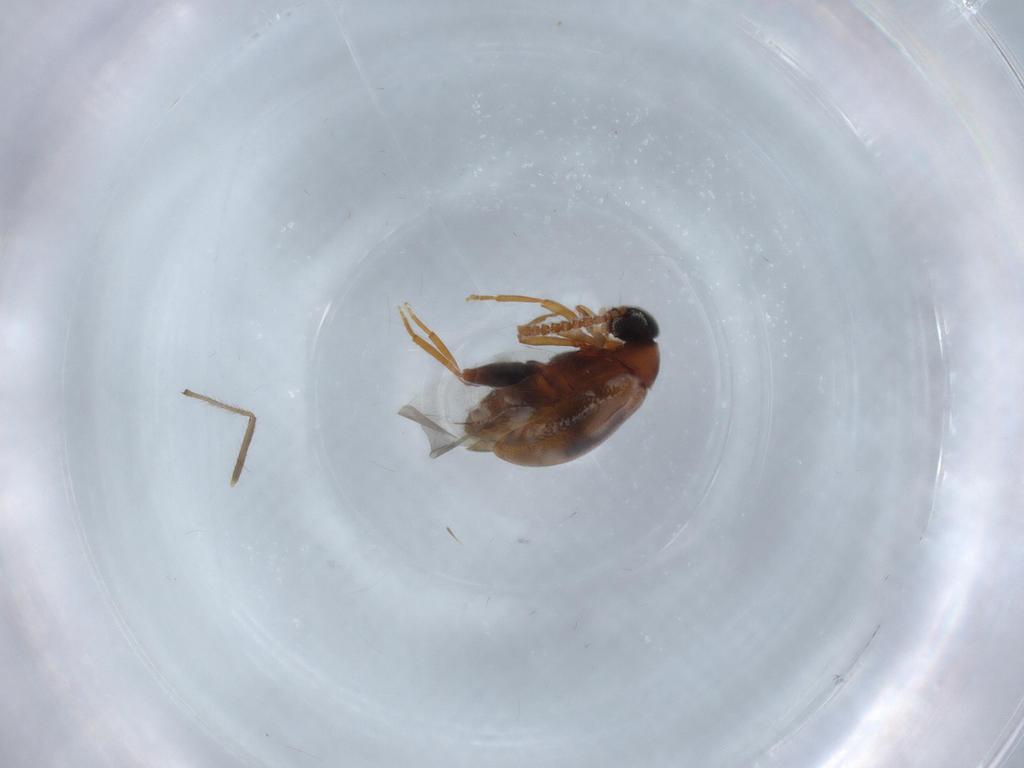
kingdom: Animalia
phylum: Arthropoda
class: Insecta
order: Coleoptera
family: Aderidae
